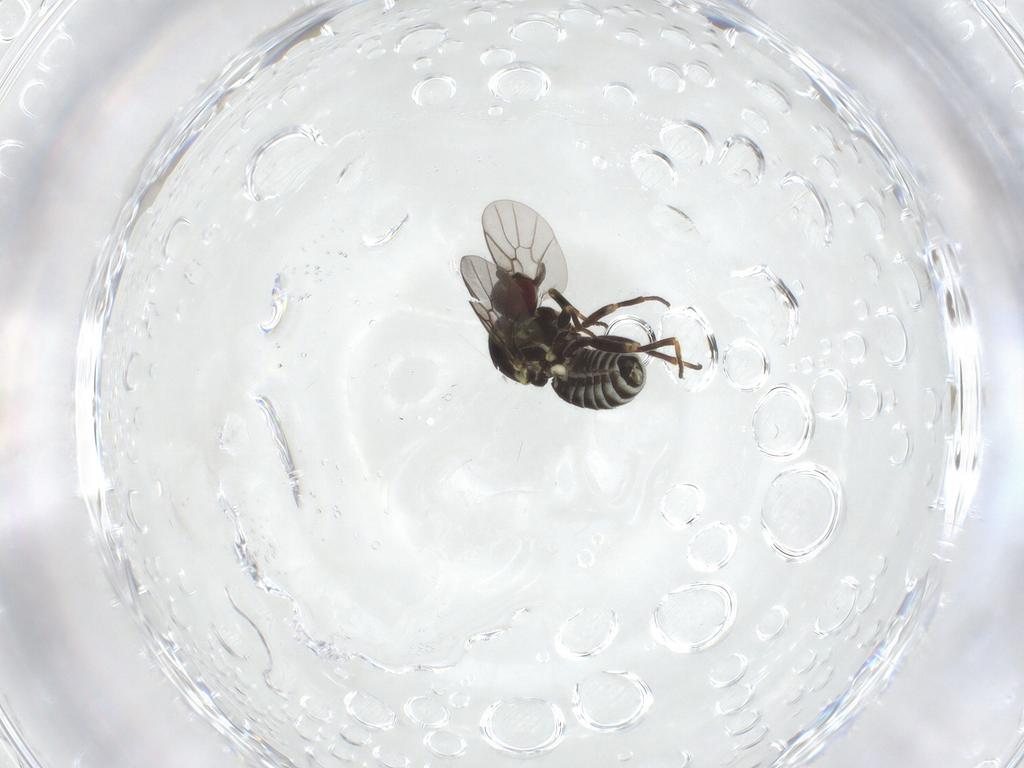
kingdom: Animalia
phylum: Arthropoda
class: Insecta
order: Diptera
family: Bombyliidae
